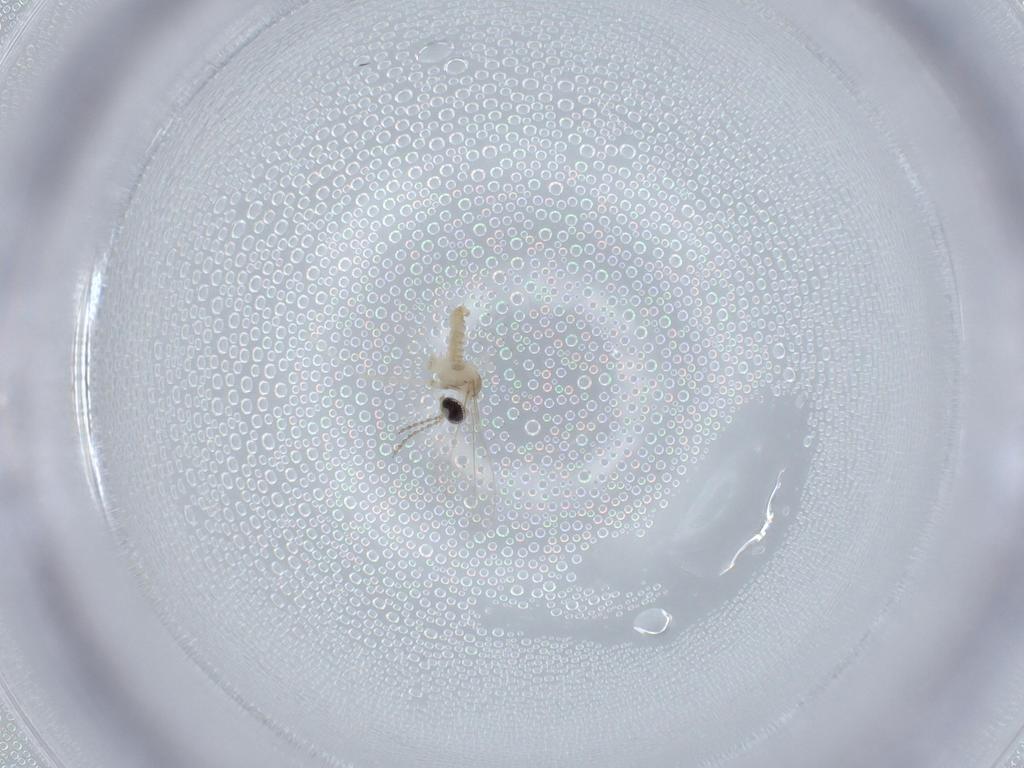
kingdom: Animalia
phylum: Arthropoda
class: Insecta
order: Diptera
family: Cecidomyiidae
